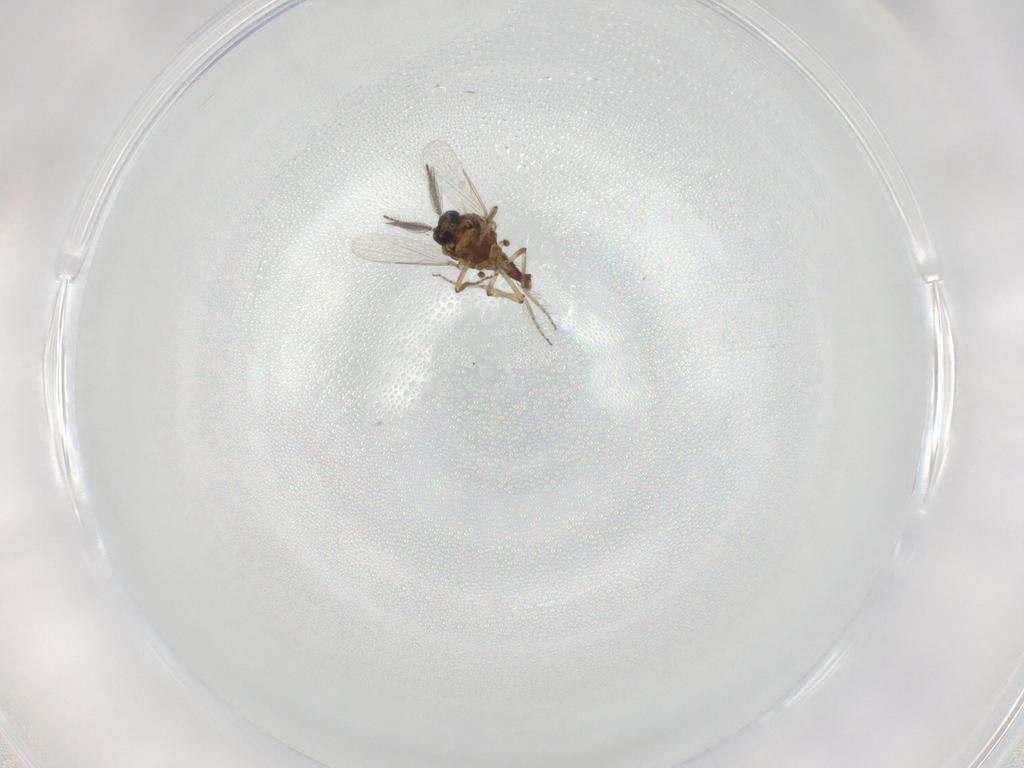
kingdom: Animalia
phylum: Arthropoda
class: Insecta
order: Diptera
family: Ceratopogonidae
